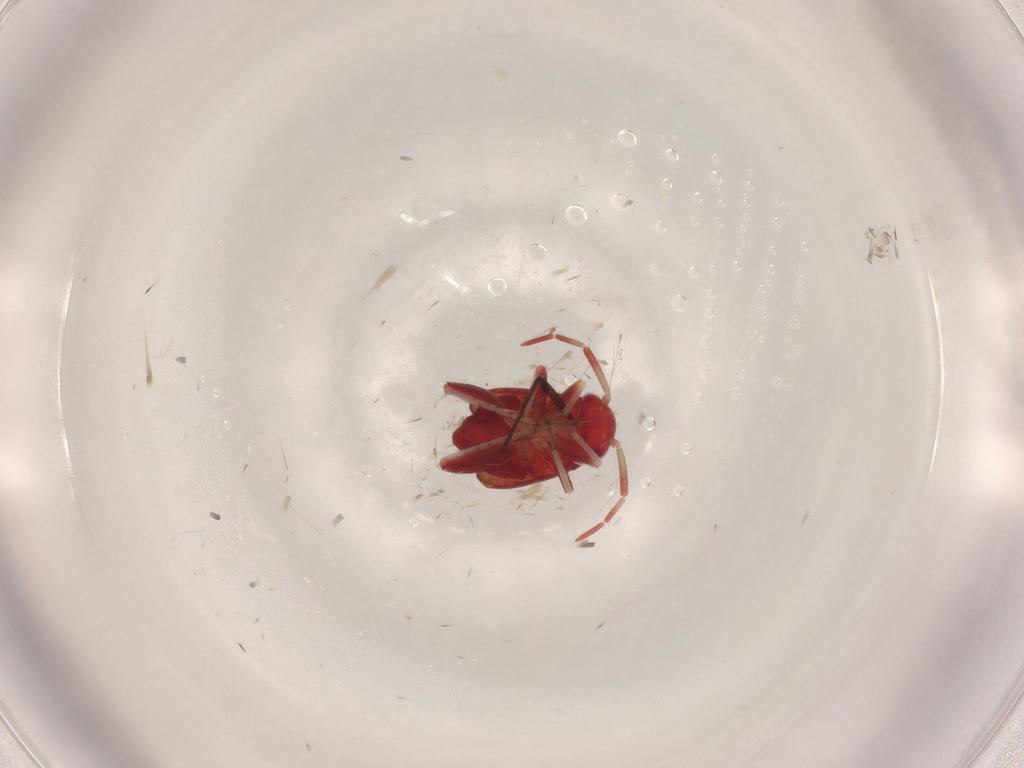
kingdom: Animalia
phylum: Arthropoda
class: Insecta
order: Hemiptera
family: Miridae
